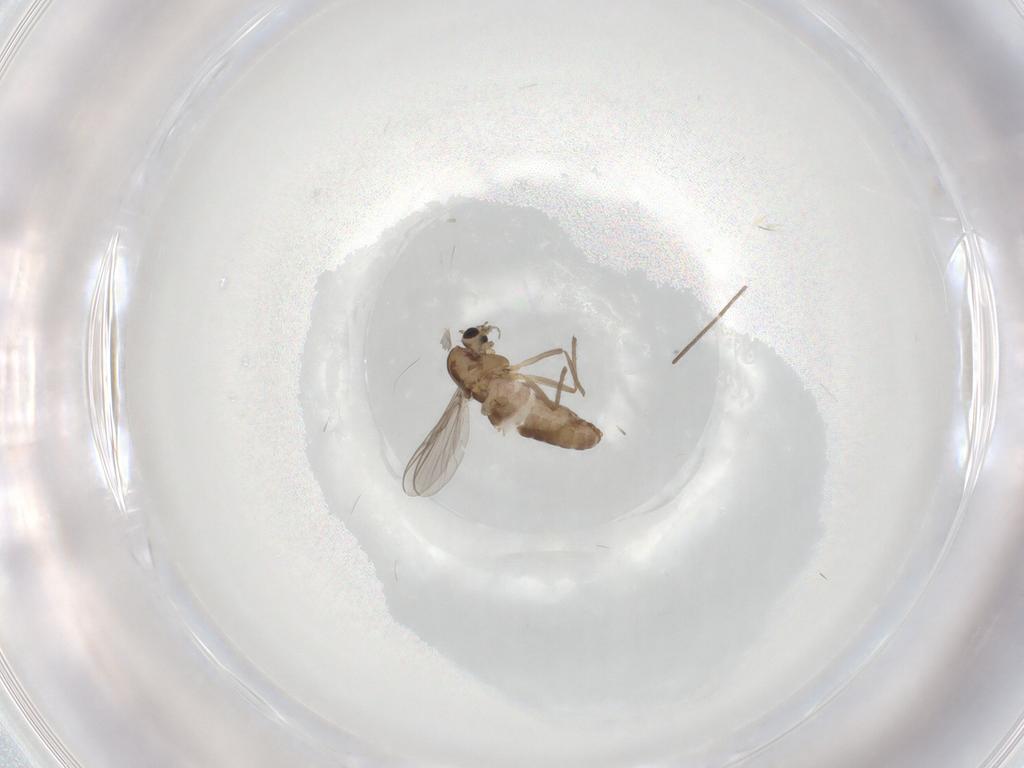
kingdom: Animalia
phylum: Arthropoda
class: Insecta
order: Diptera
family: Chironomidae
